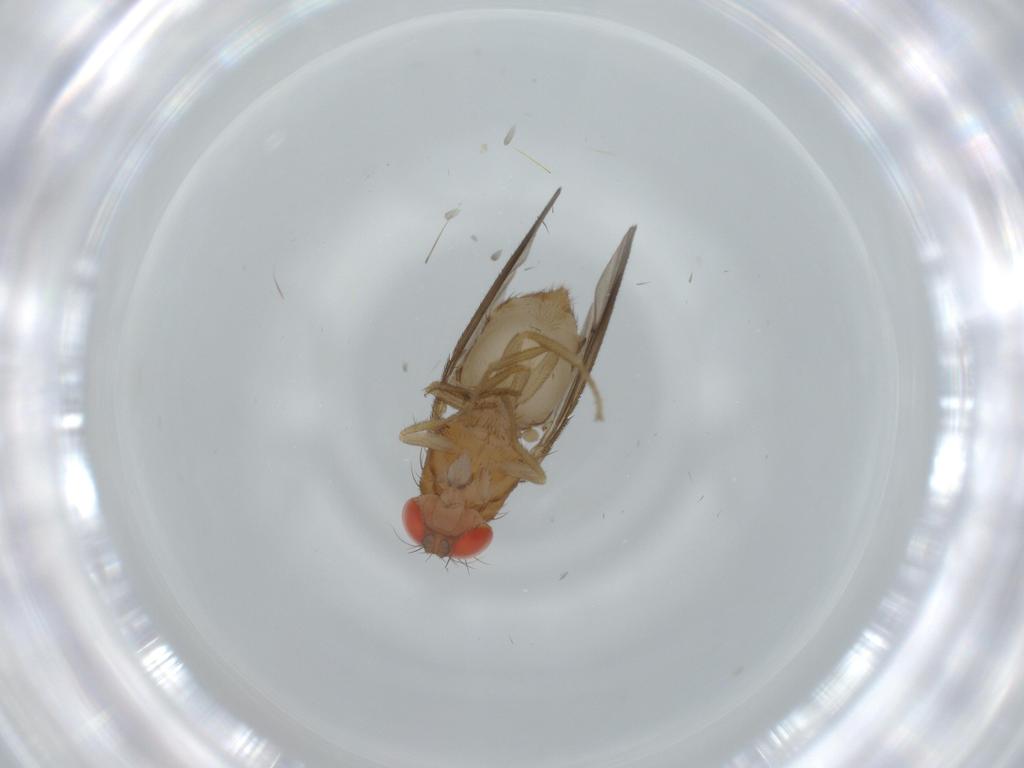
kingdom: Animalia
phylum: Arthropoda
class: Insecta
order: Diptera
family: Drosophilidae
